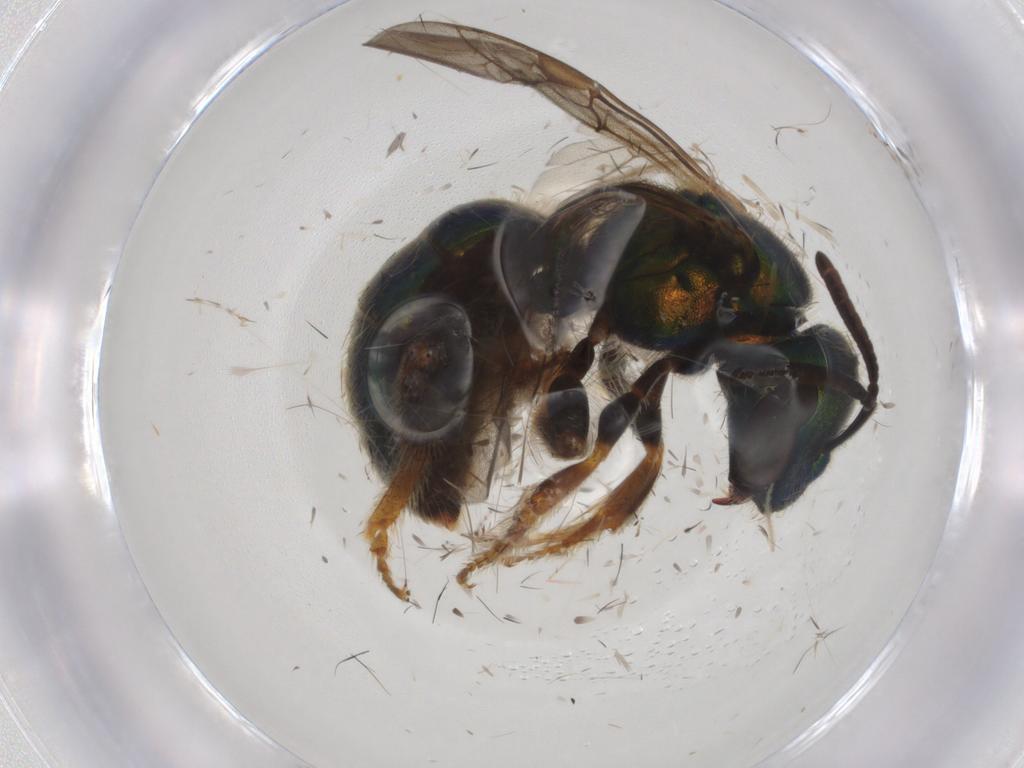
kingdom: Animalia
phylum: Arthropoda
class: Insecta
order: Hymenoptera
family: Halictidae
